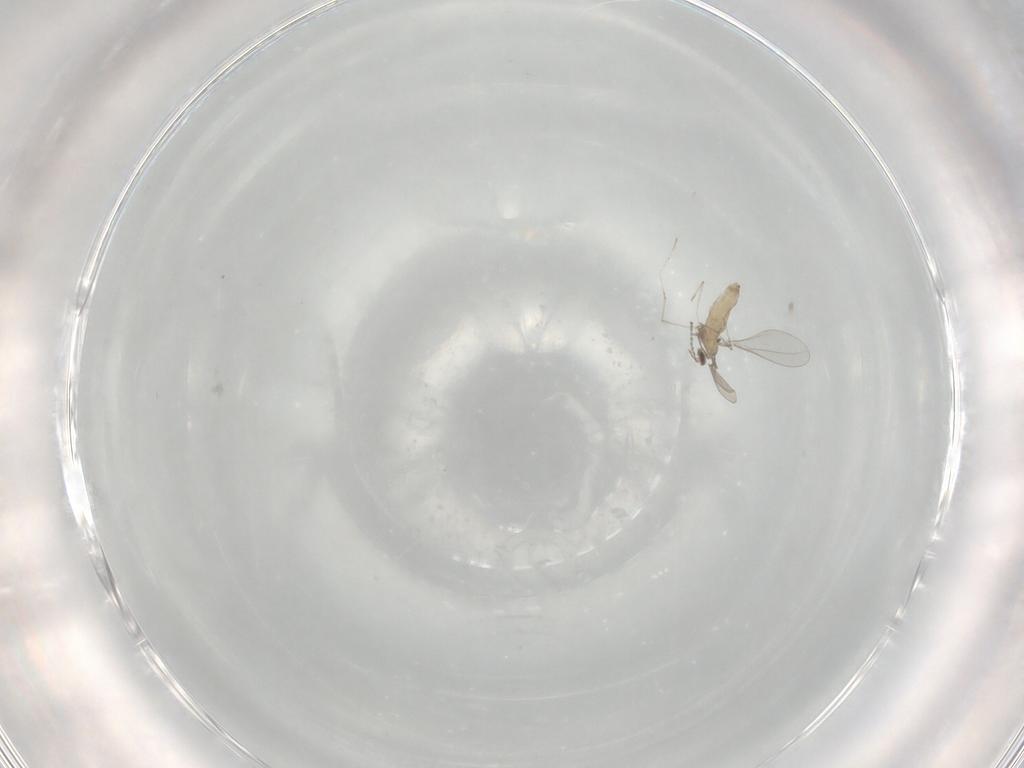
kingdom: Animalia
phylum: Arthropoda
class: Insecta
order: Diptera
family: Cecidomyiidae
